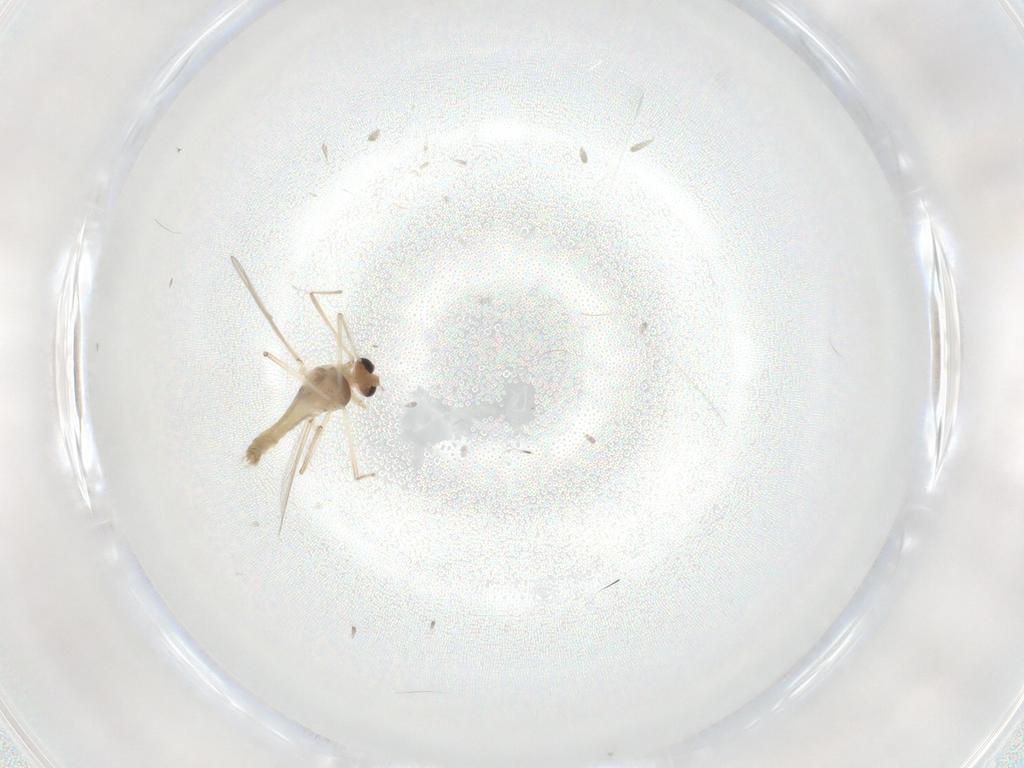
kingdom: Animalia
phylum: Arthropoda
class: Insecta
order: Diptera
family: Chironomidae
